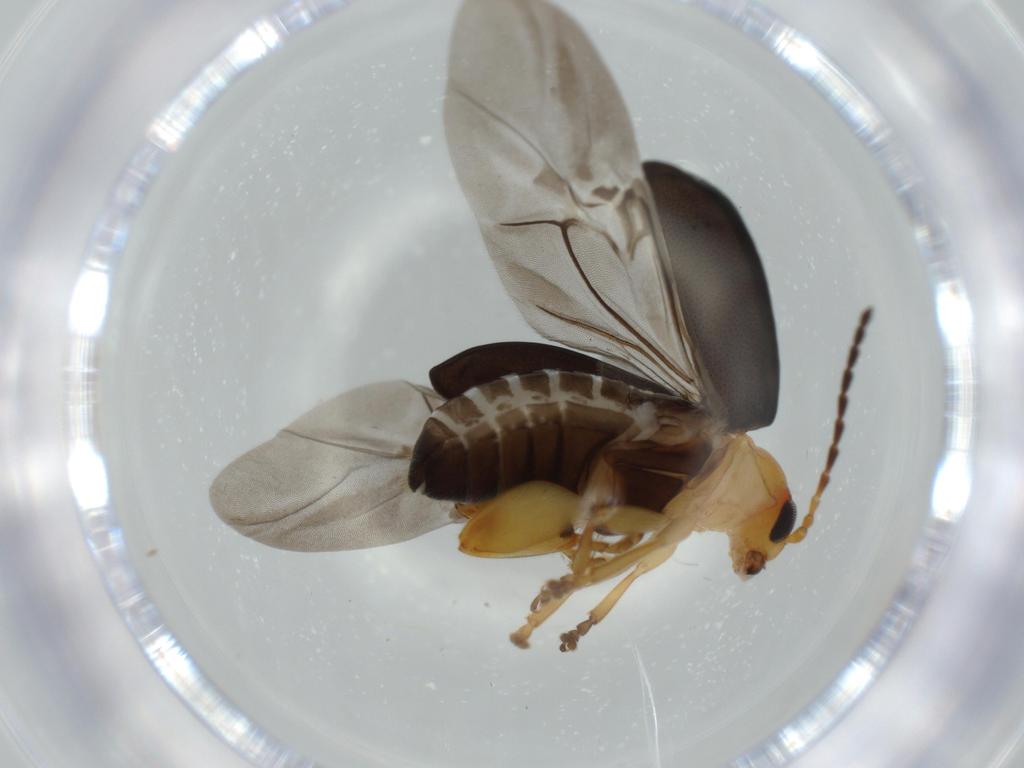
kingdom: Animalia
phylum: Arthropoda
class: Insecta
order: Coleoptera
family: Chrysomelidae
